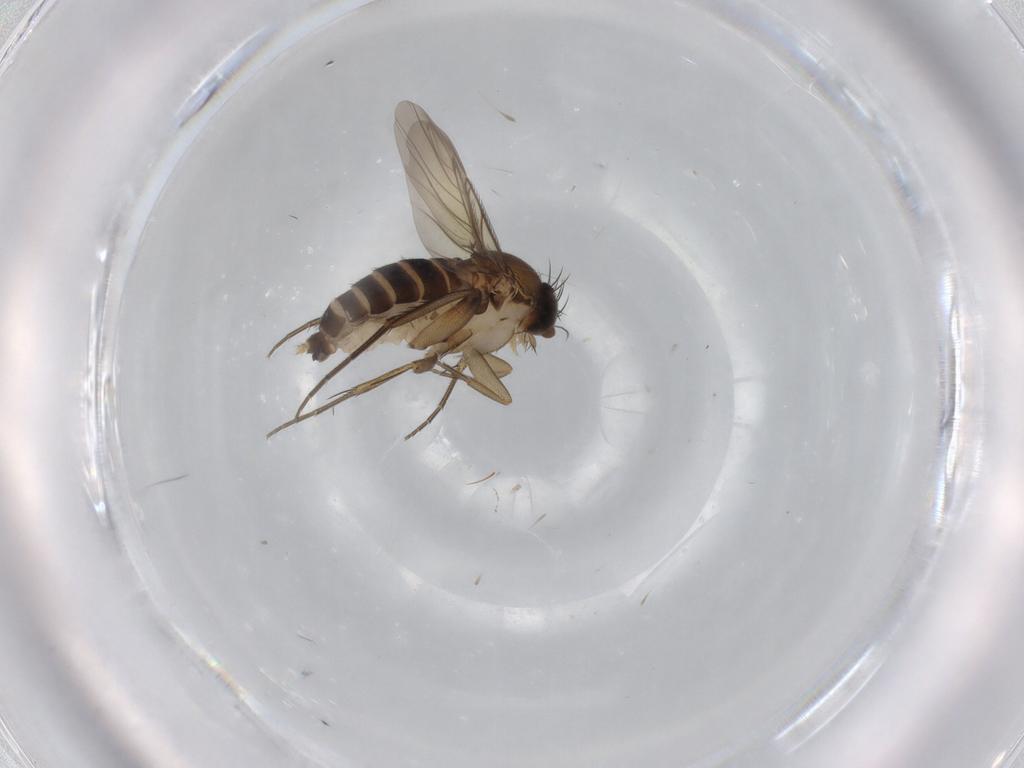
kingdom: Animalia
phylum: Arthropoda
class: Insecta
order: Diptera
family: Phoridae
